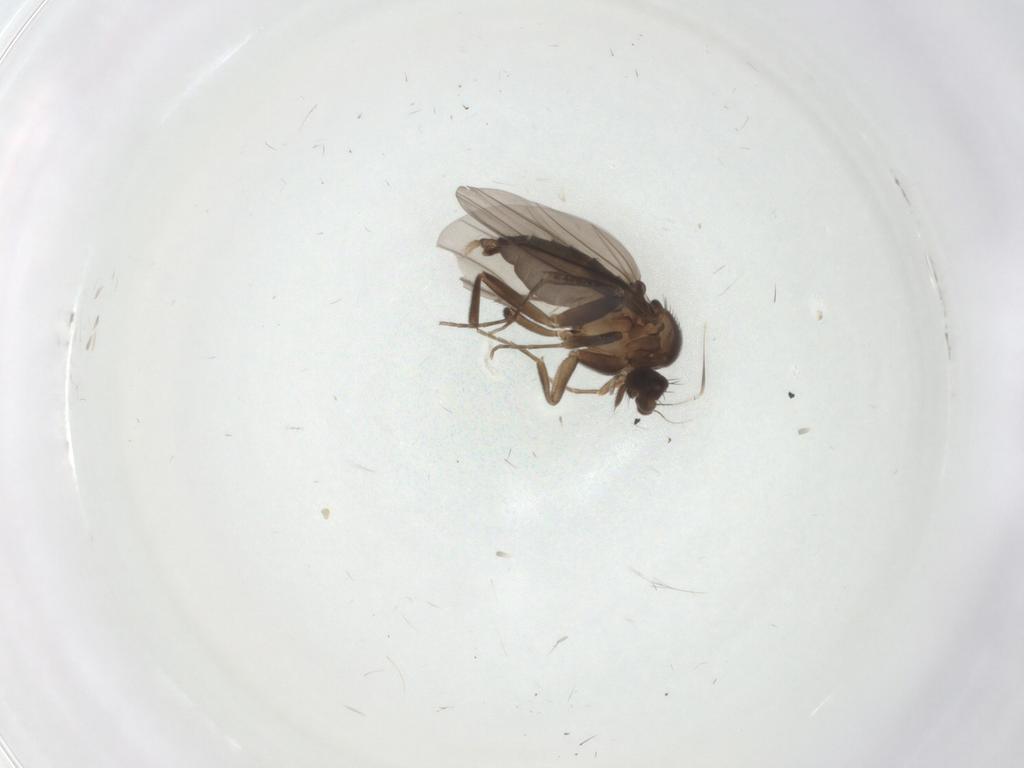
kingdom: Animalia
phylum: Arthropoda
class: Insecta
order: Diptera
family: Phoridae
